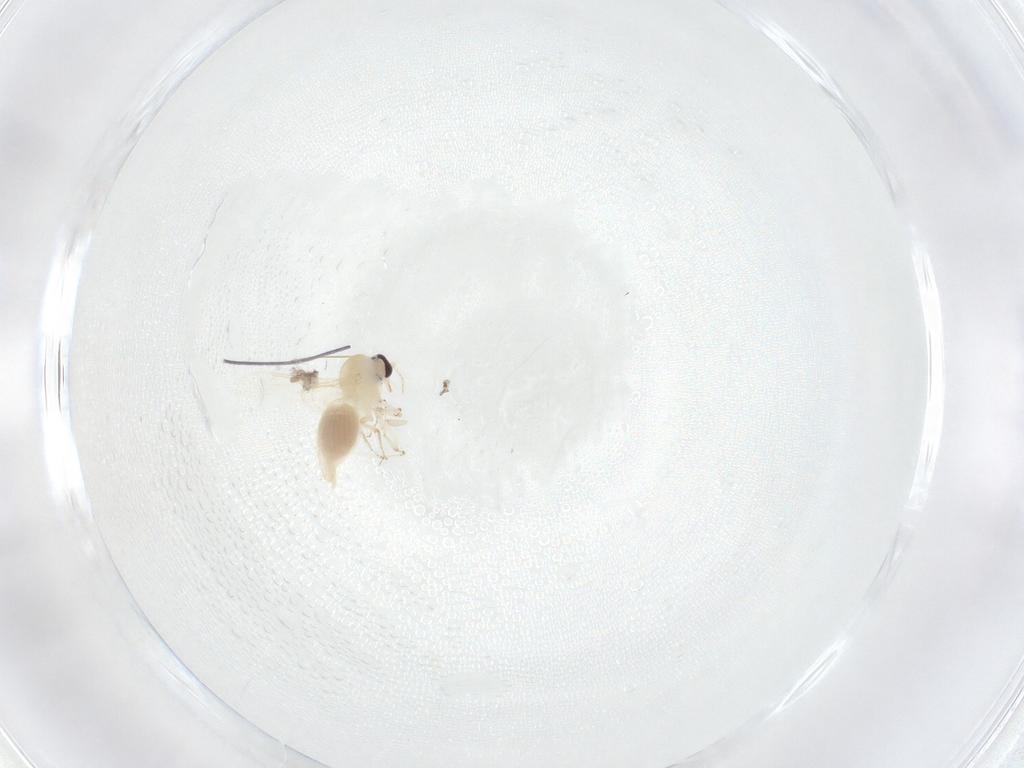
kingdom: Animalia
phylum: Arthropoda
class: Insecta
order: Diptera
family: Ceratopogonidae
